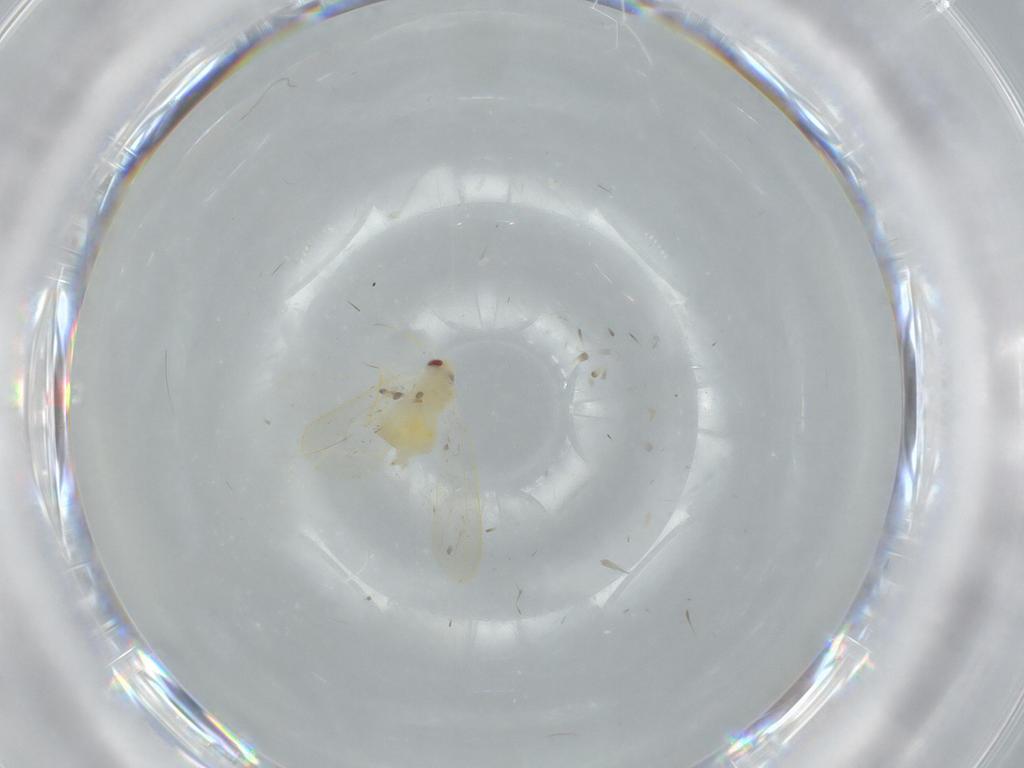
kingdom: Animalia
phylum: Arthropoda
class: Insecta
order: Hemiptera
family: Aleyrodidae
